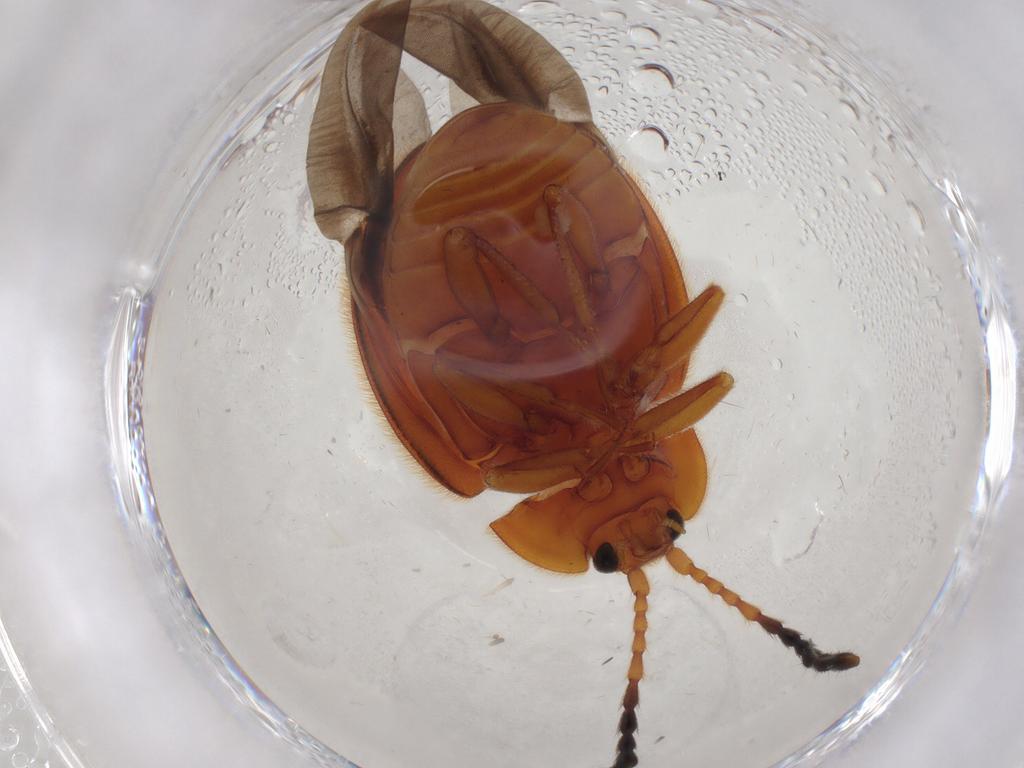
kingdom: Animalia
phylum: Arthropoda
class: Insecta
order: Coleoptera
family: Endomychidae
